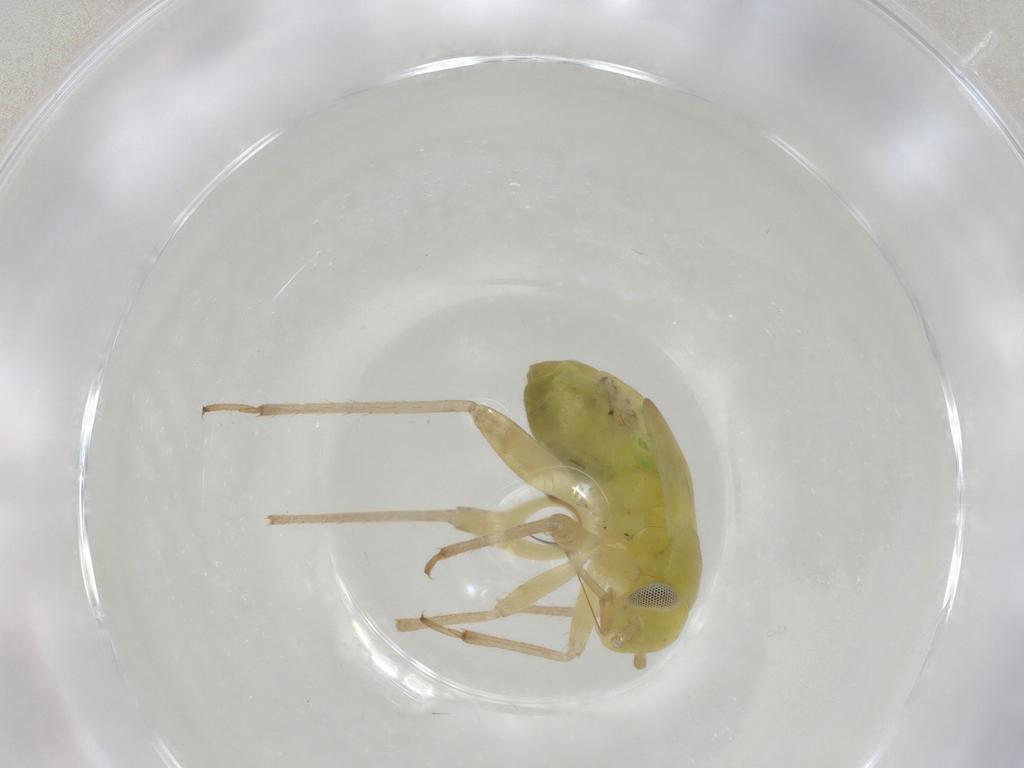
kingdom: Animalia
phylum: Arthropoda
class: Insecta
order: Hemiptera
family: Miridae
